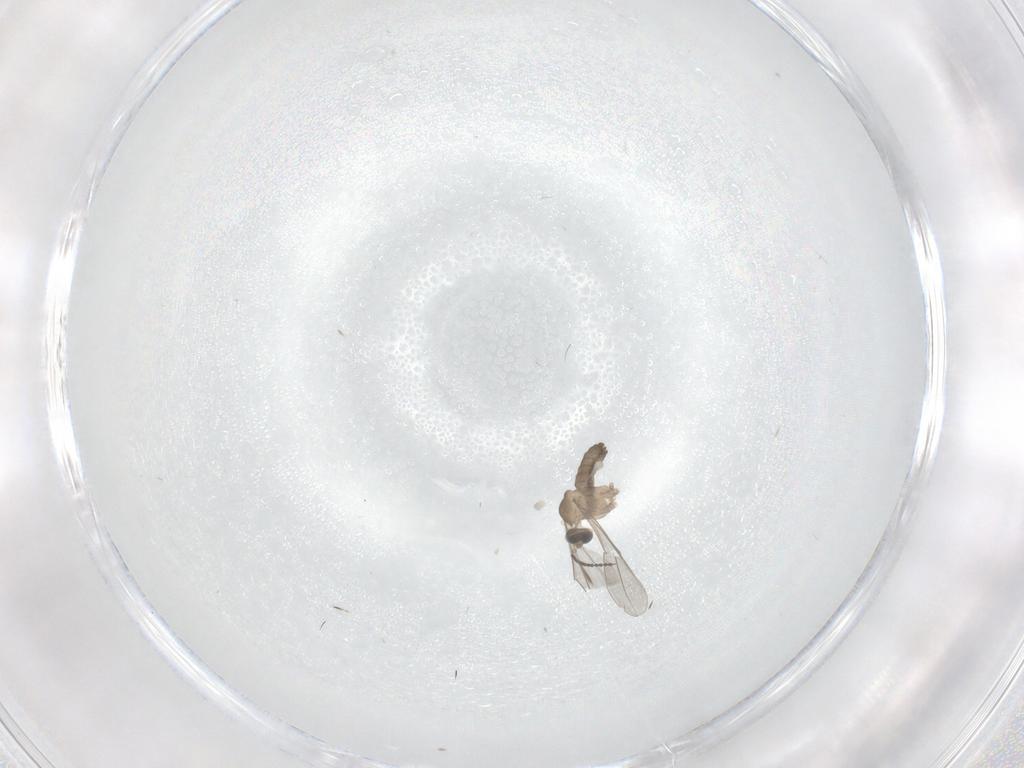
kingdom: Animalia
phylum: Arthropoda
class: Insecta
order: Diptera
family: Cecidomyiidae
